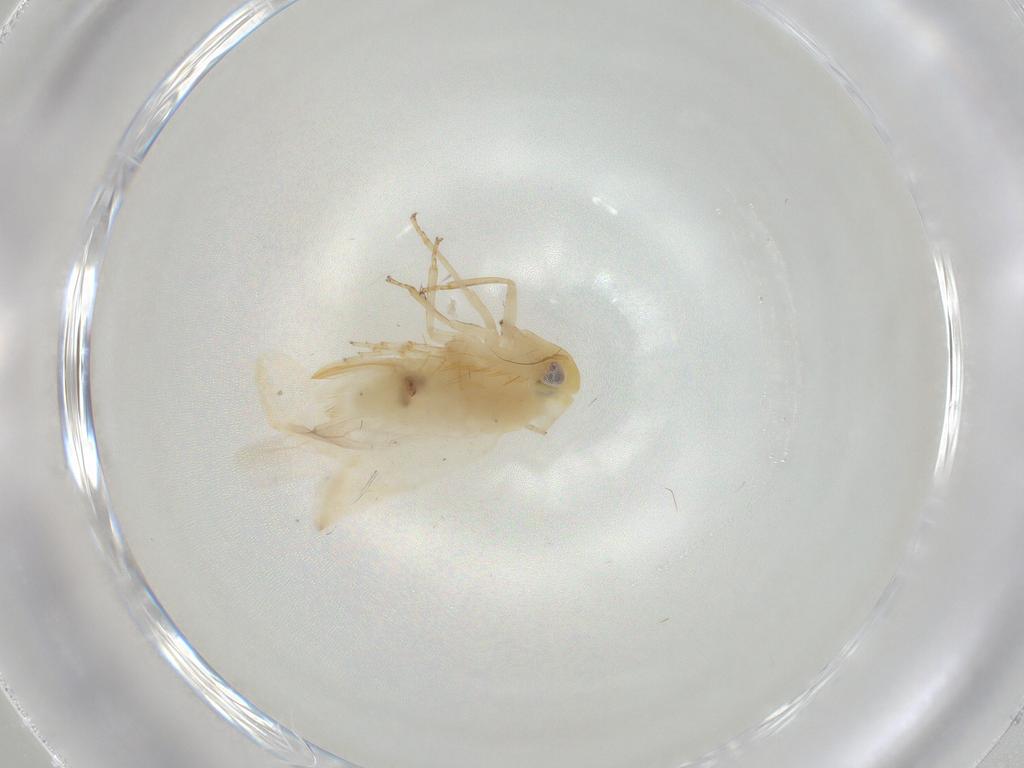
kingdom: Animalia
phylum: Arthropoda
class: Insecta
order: Hemiptera
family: Cicadellidae
